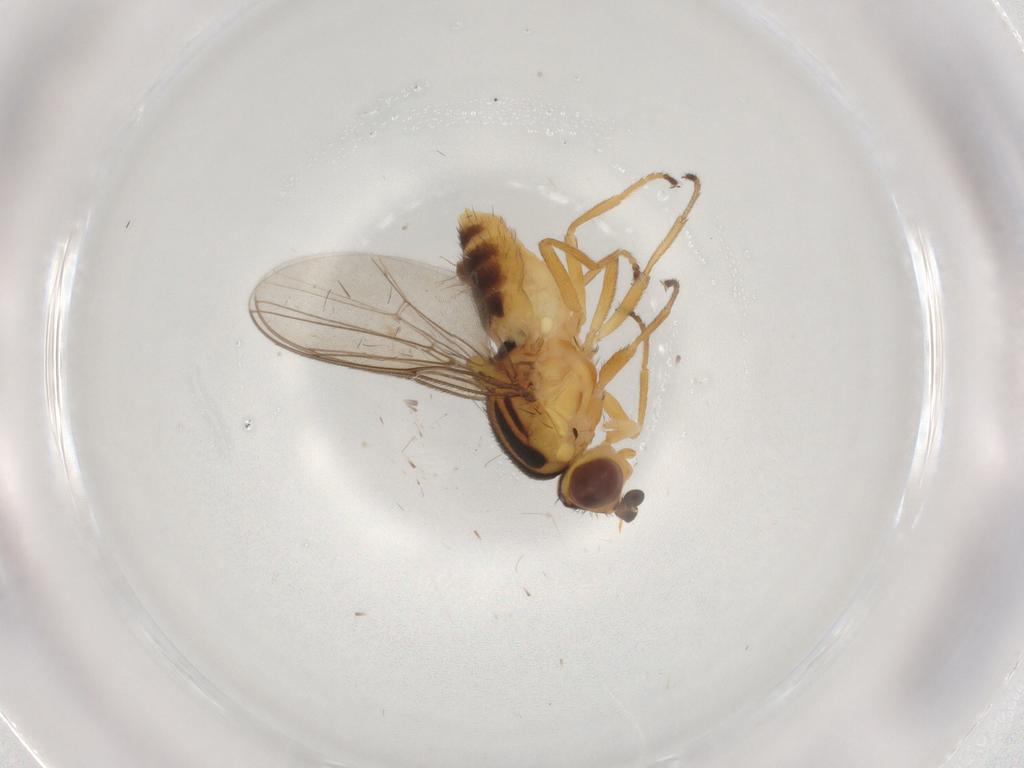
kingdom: Animalia
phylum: Arthropoda
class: Insecta
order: Diptera
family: Chloropidae
